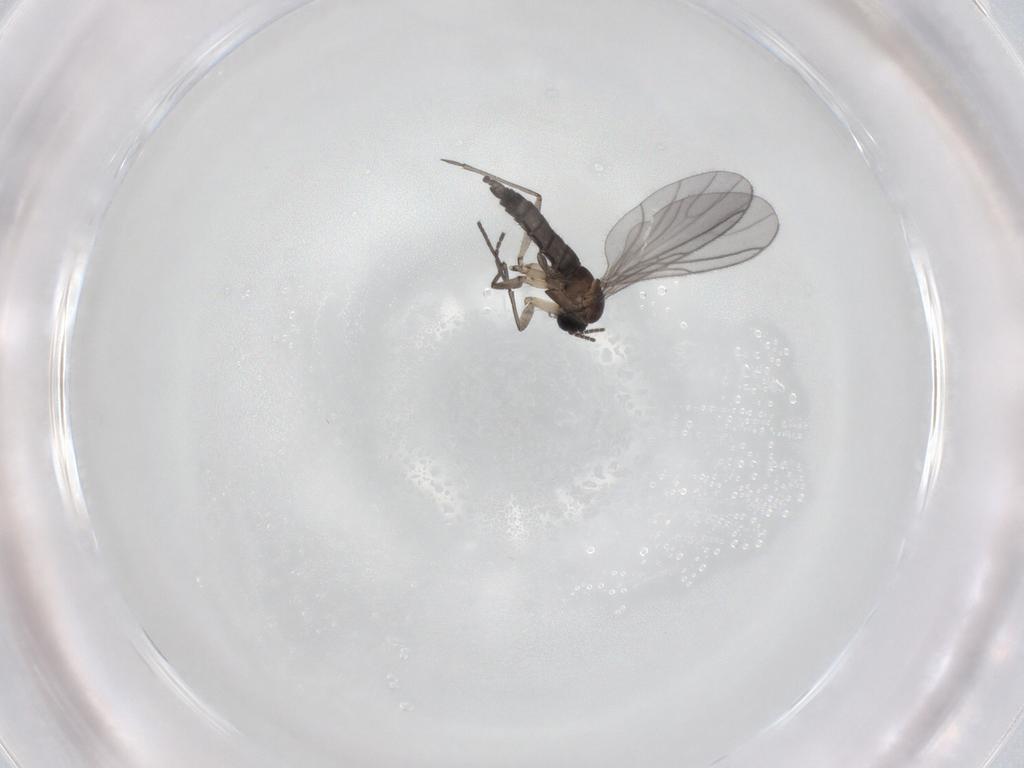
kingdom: Animalia
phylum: Arthropoda
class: Insecta
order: Diptera
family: Sciaridae
